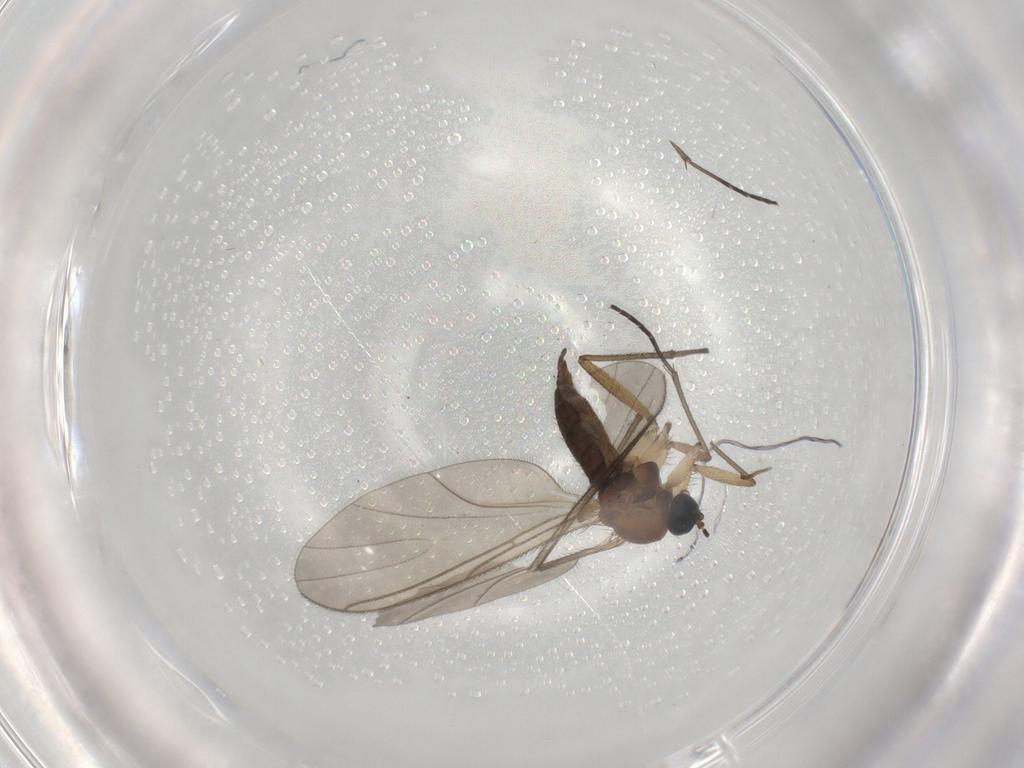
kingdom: Animalia
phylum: Arthropoda
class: Insecta
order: Diptera
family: Sciaridae
